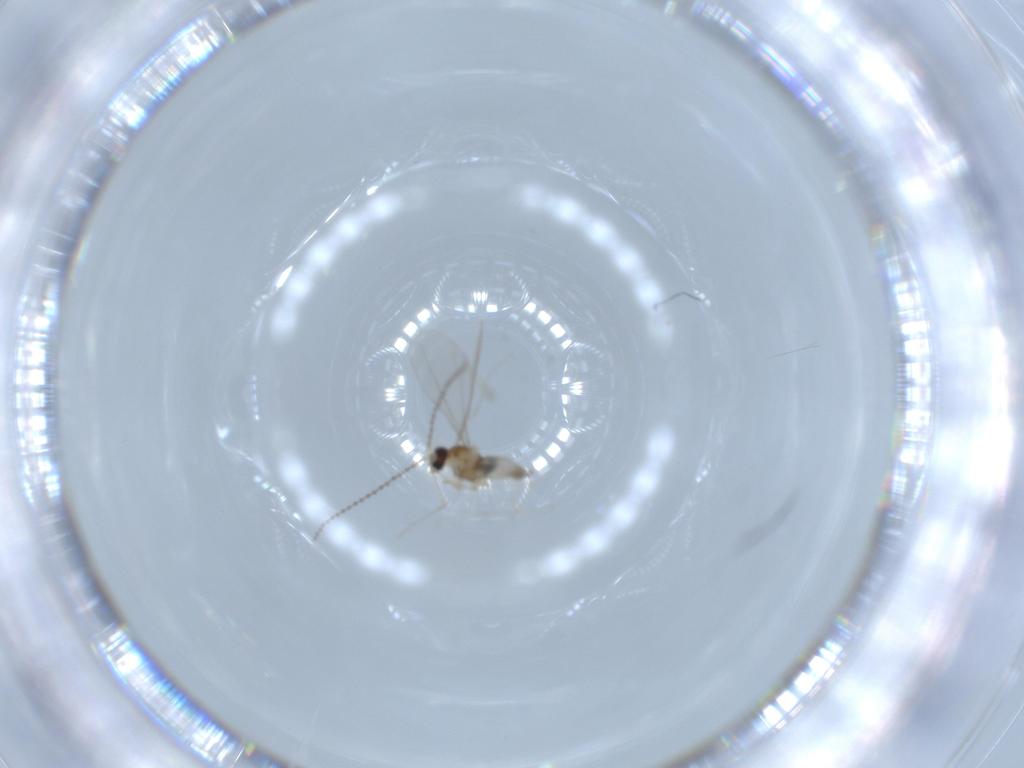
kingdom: Animalia
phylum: Arthropoda
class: Insecta
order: Diptera
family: Cecidomyiidae
